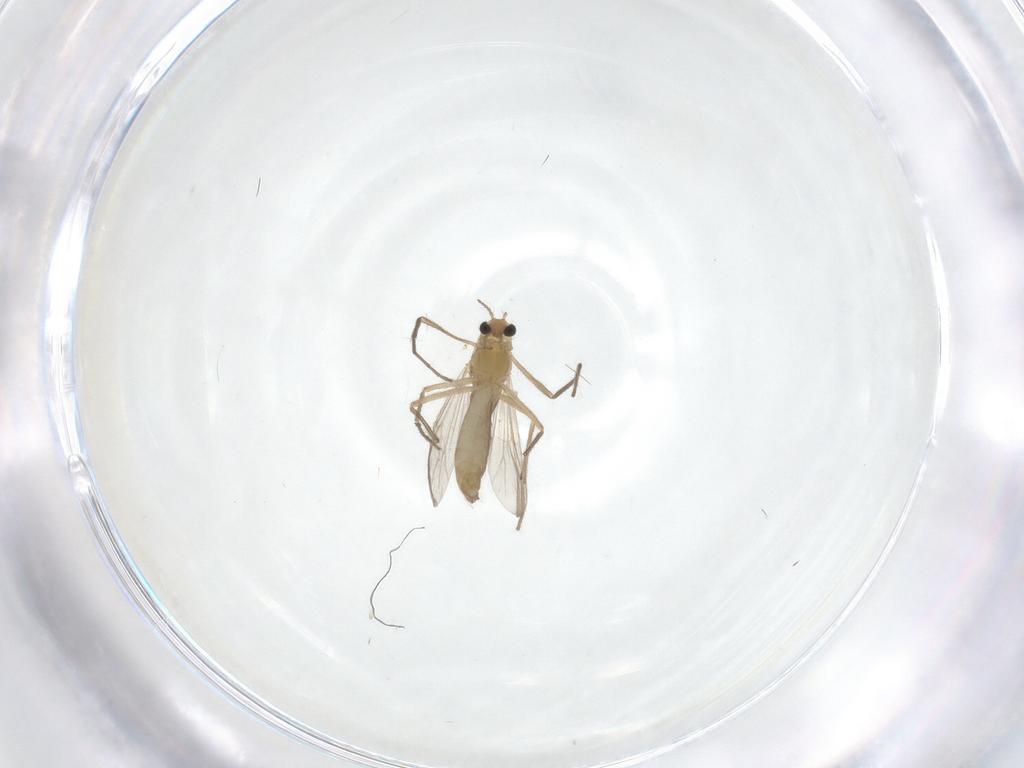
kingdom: Animalia
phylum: Arthropoda
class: Insecta
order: Diptera
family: Chironomidae
